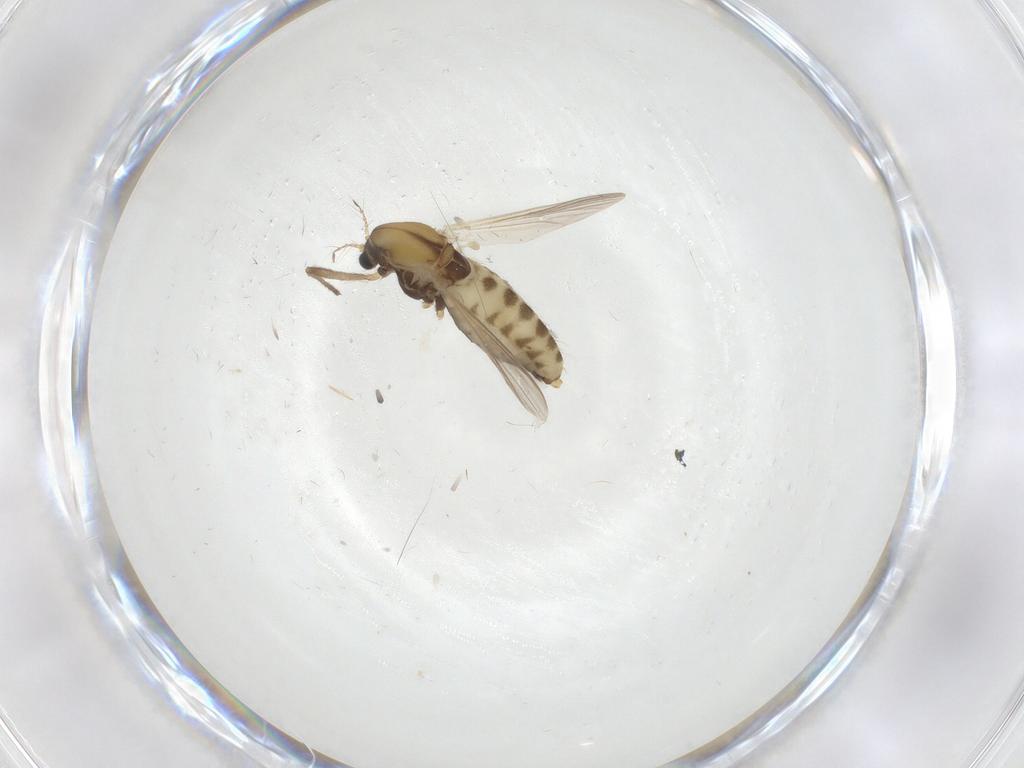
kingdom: Animalia
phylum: Arthropoda
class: Insecta
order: Diptera
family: Chironomidae
